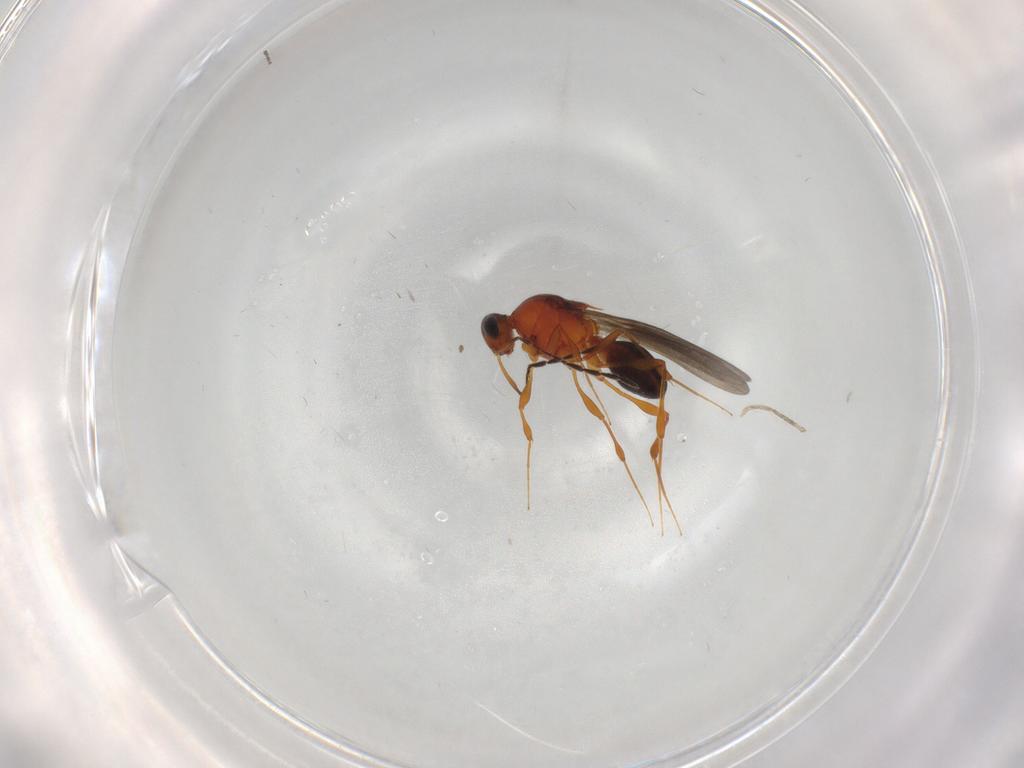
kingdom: Animalia
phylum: Arthropoda
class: Insecta
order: Hymenoptera
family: Platygastridae
